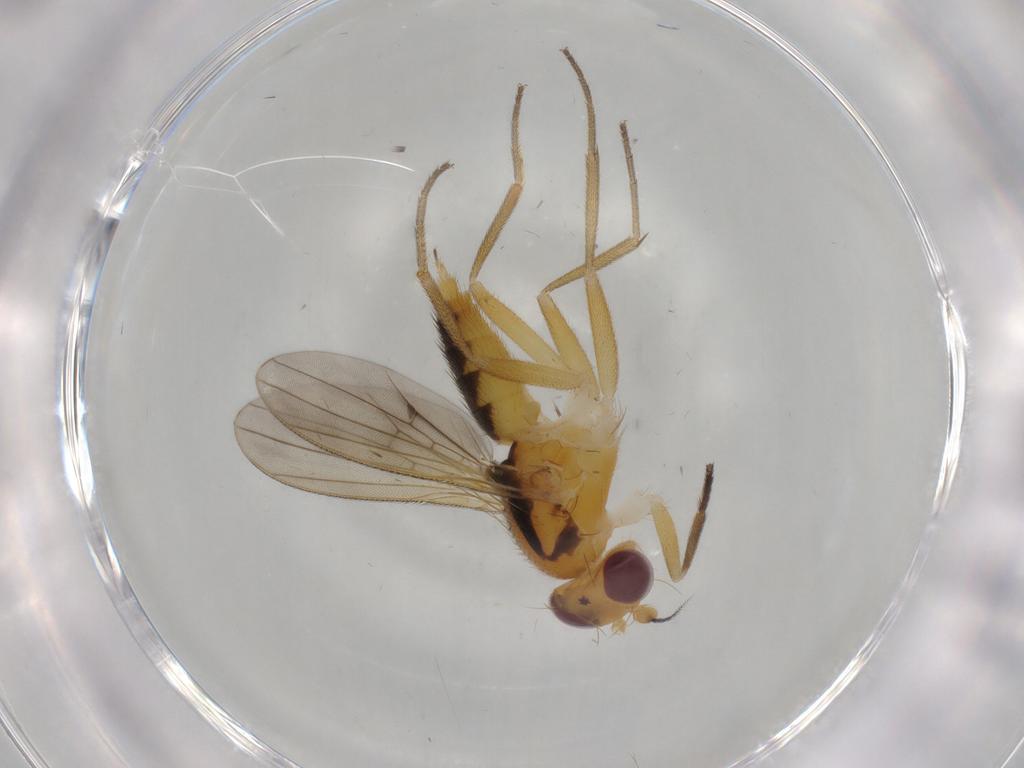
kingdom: Animalia
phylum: Arthropoda
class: Insecta
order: Diptera
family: Clusiidae
